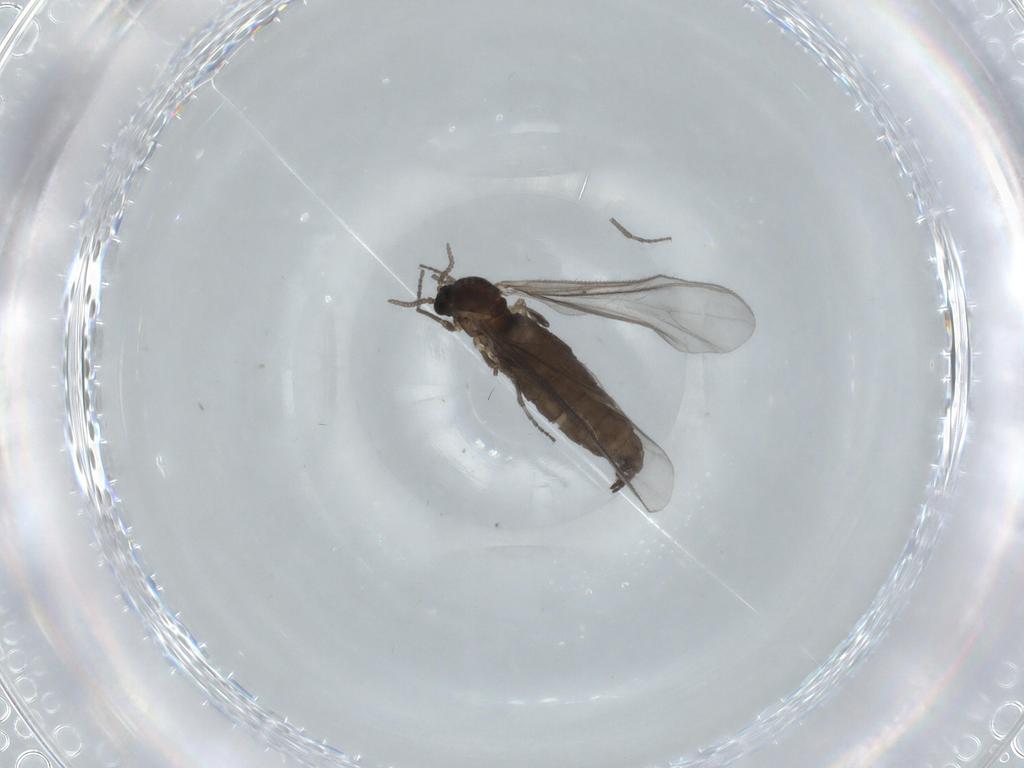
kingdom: Animalia
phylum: Arthropoda
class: Insecta
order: Diptera
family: Sciaridae
